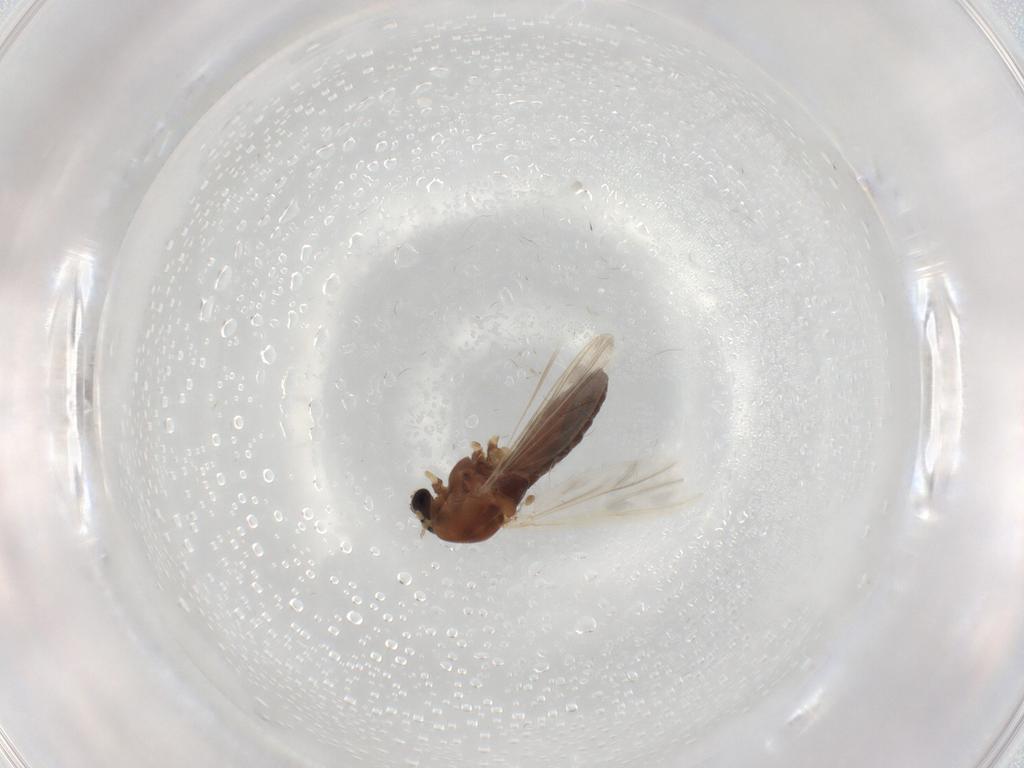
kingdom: Animalia
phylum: Arthropoda
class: Insecta
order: Diptera
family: Chironomidae
